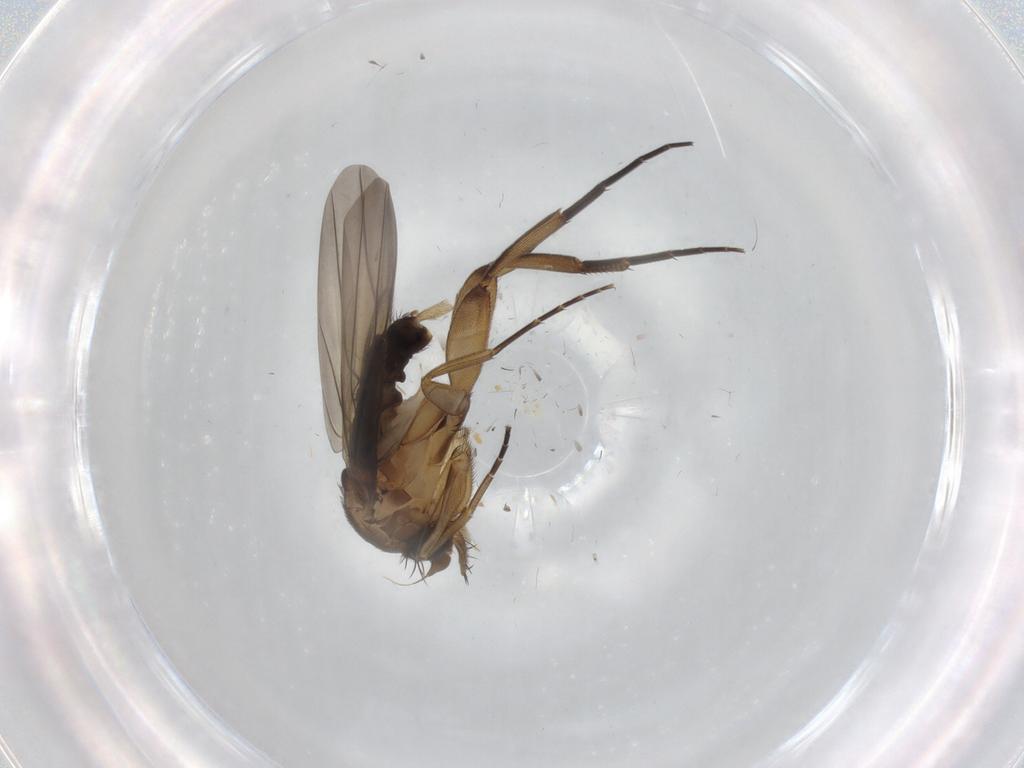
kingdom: Animalia
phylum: Arthropoda
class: Insecta
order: Diptera
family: Phoridae
